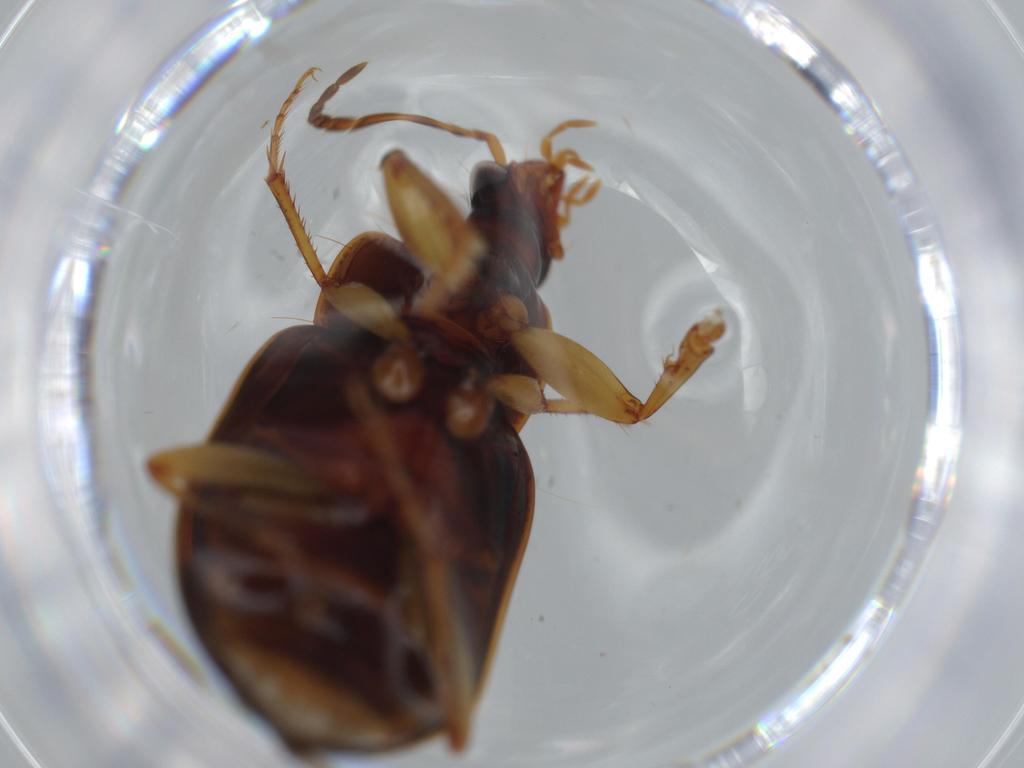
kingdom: Animalia
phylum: Arthropoda
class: Insecta
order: Coleoptera
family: Carabidae
